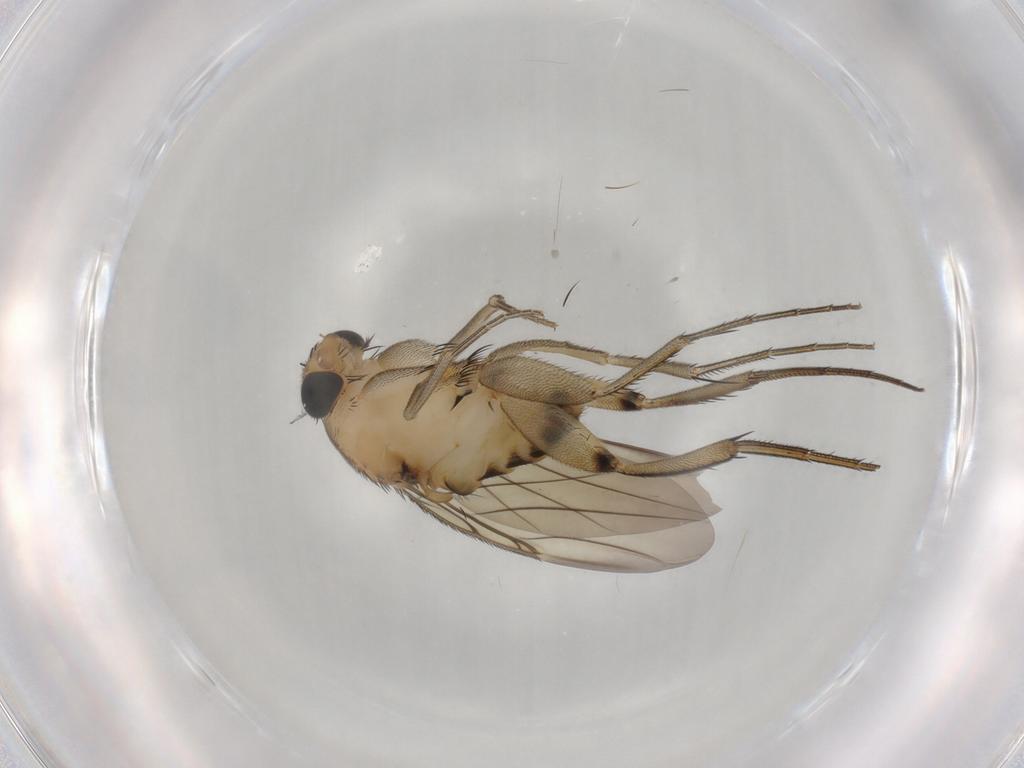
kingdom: Animalia
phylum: Arthropoda
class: Insecta
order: Diptera
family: Phoridae
